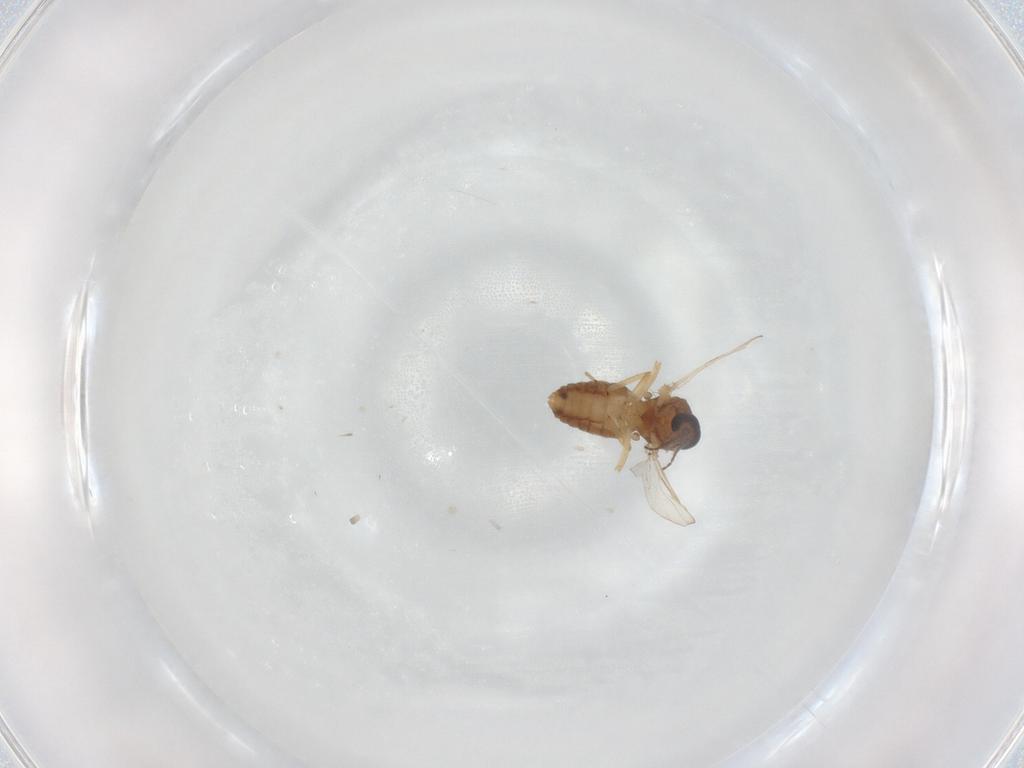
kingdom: Animalia
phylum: Arthropoda
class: Insecta
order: Diptera
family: Ceratopogonidae
